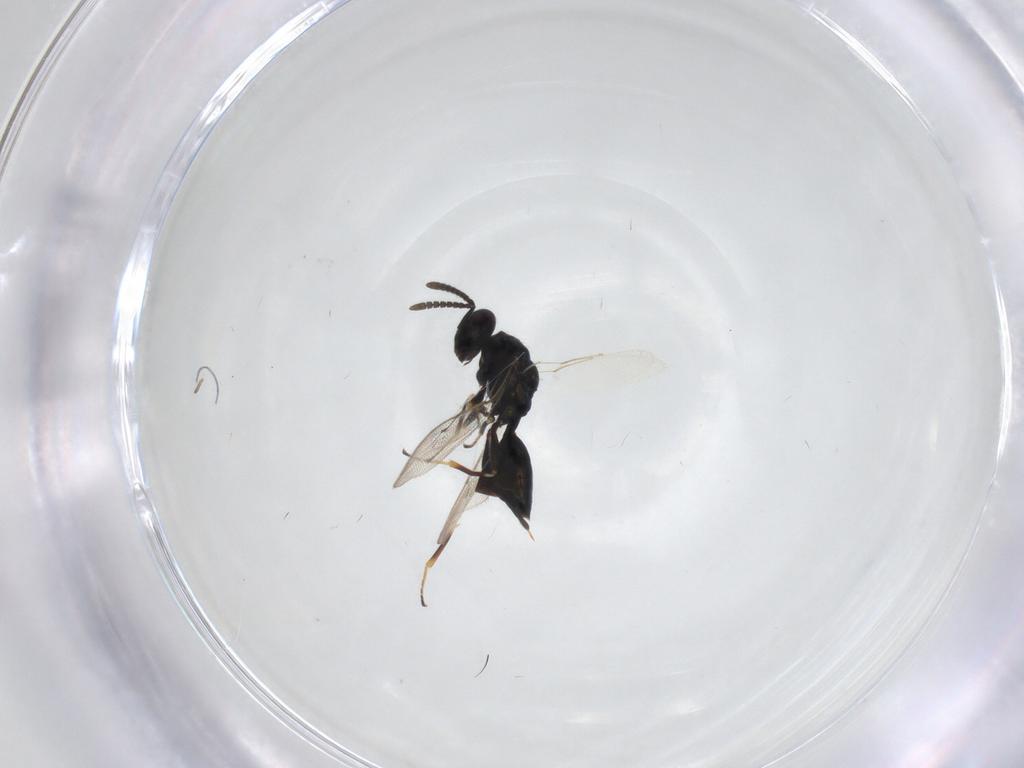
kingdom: Animalia
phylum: Arthropoda
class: Insecta
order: Hymenoptera
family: Pteromalidae
